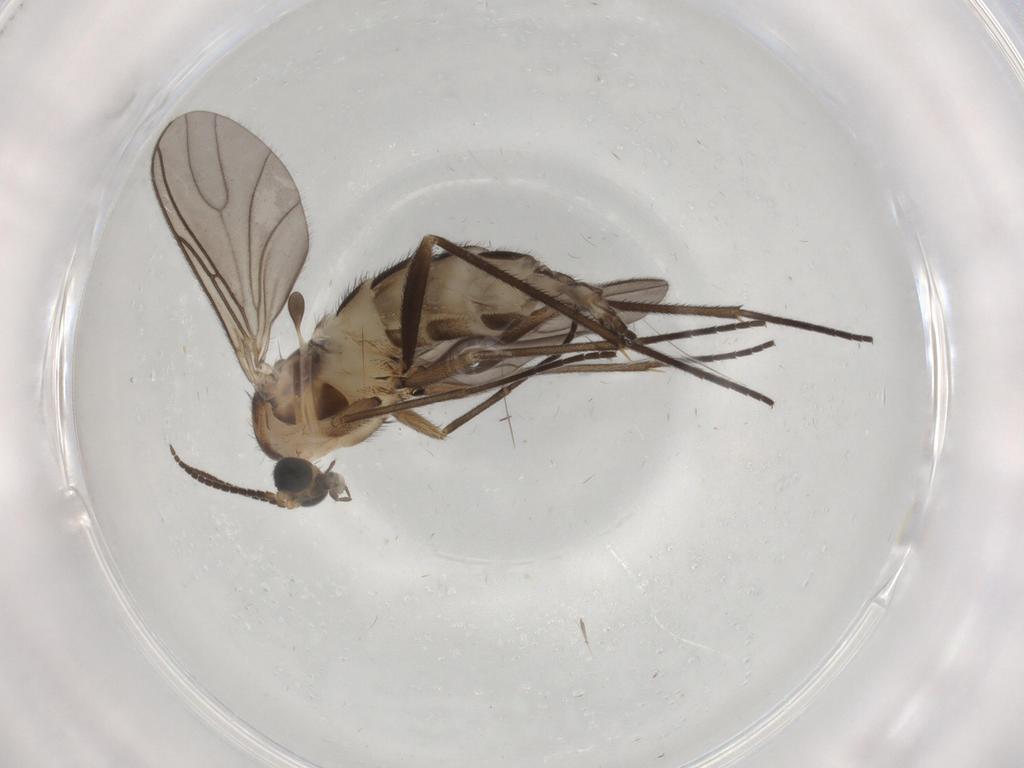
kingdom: Animalia
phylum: Arthropoda
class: Insecta
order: Diptera
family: Sciaridae
